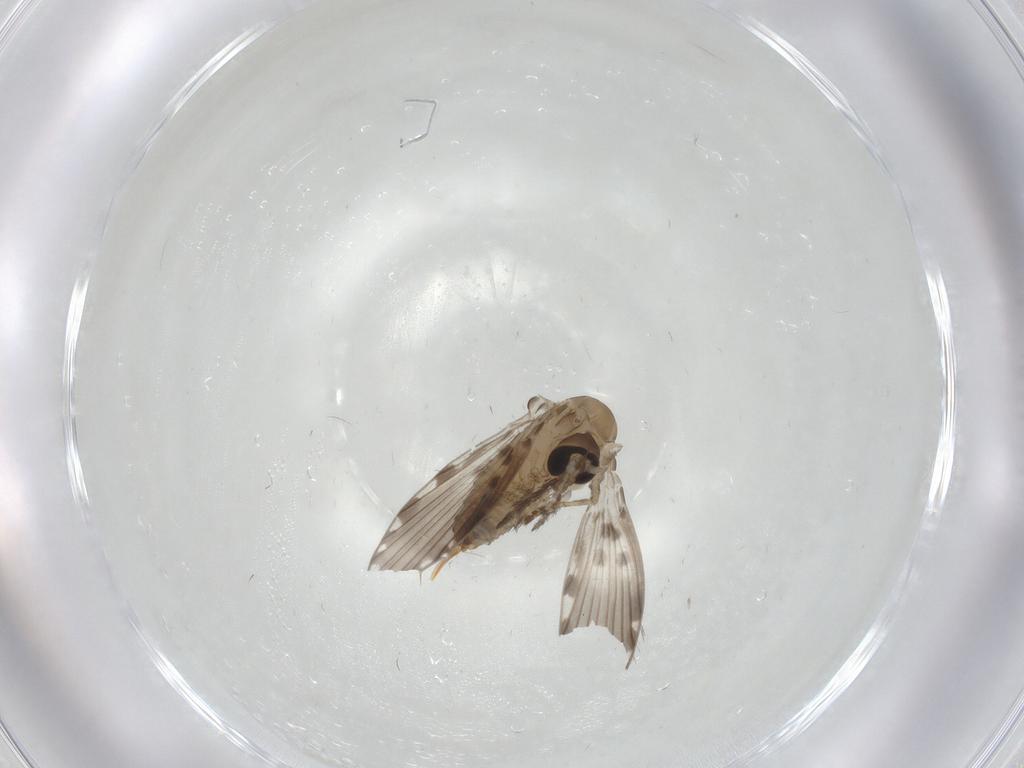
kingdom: Animalia
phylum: Arthropoda
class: Insecta
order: Diptera
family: Psychodidae
